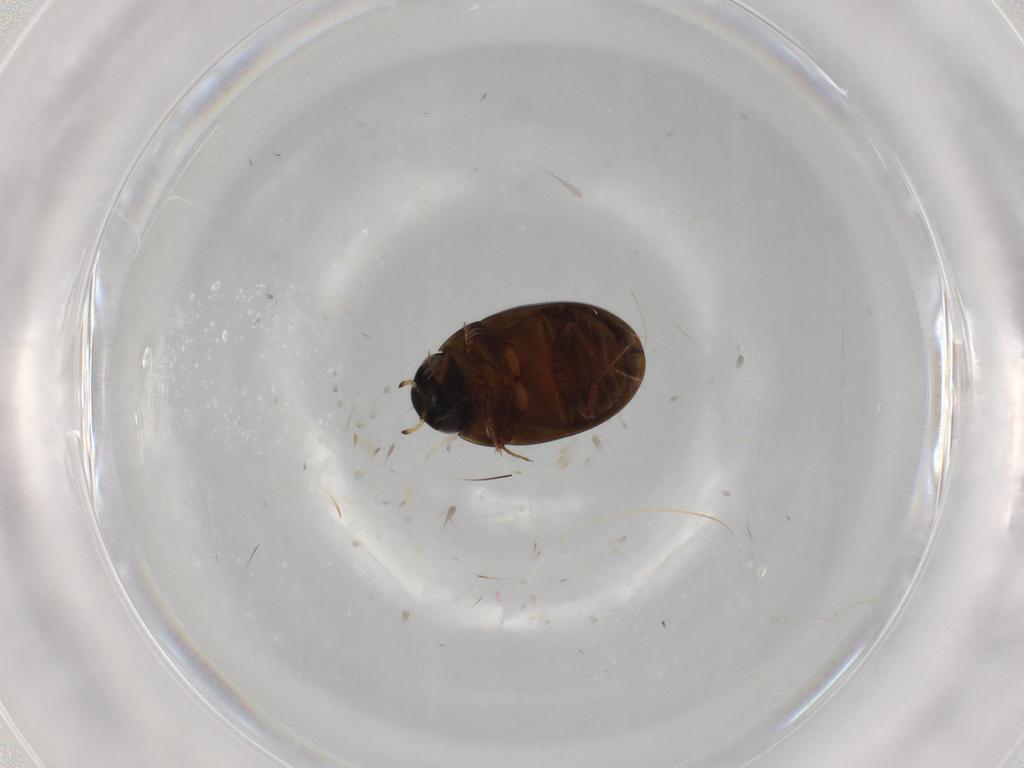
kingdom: Animalia
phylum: Arthropoda
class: Insecta
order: Coleoptera
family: Hydrophilidae
